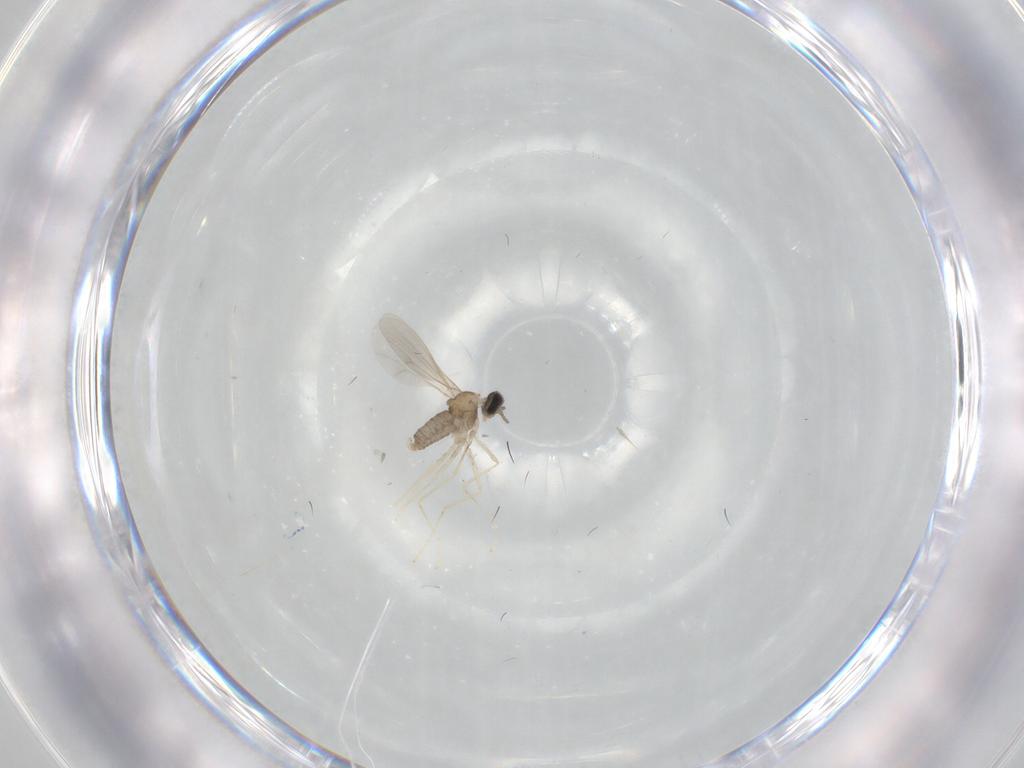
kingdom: Animalia
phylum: Arthropoda
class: Insecta
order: Diptera
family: Cecidomyiidae
